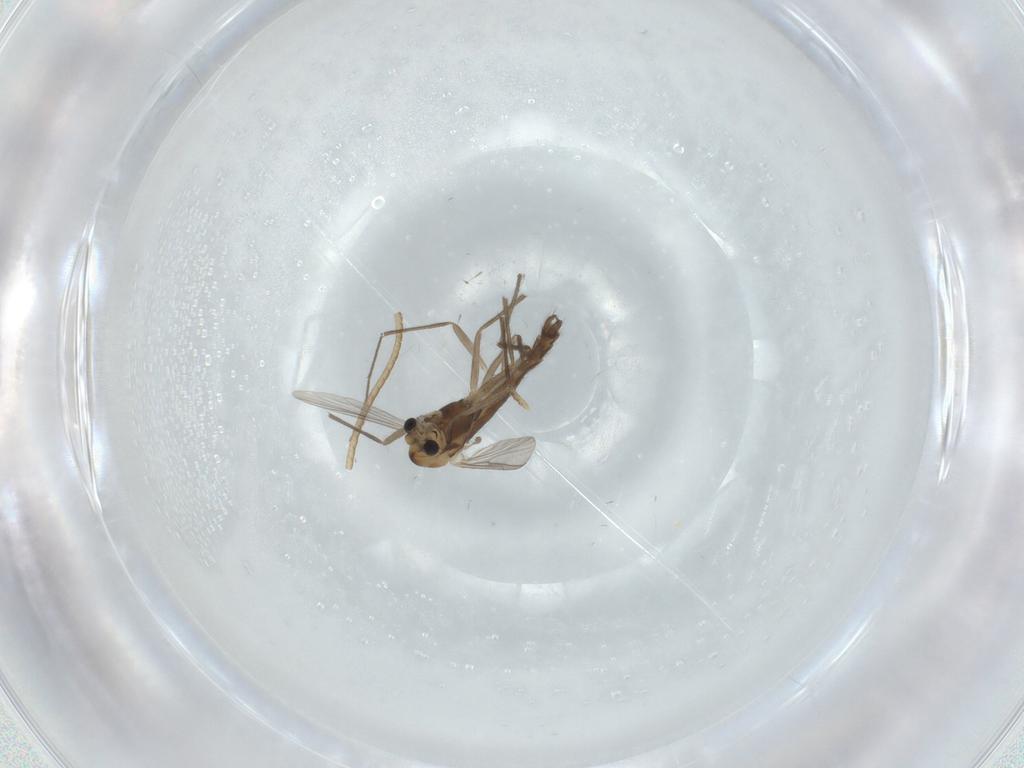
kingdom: Animalia
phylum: Arthropoda
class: Insecta
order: Diptera
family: Chironomidae
